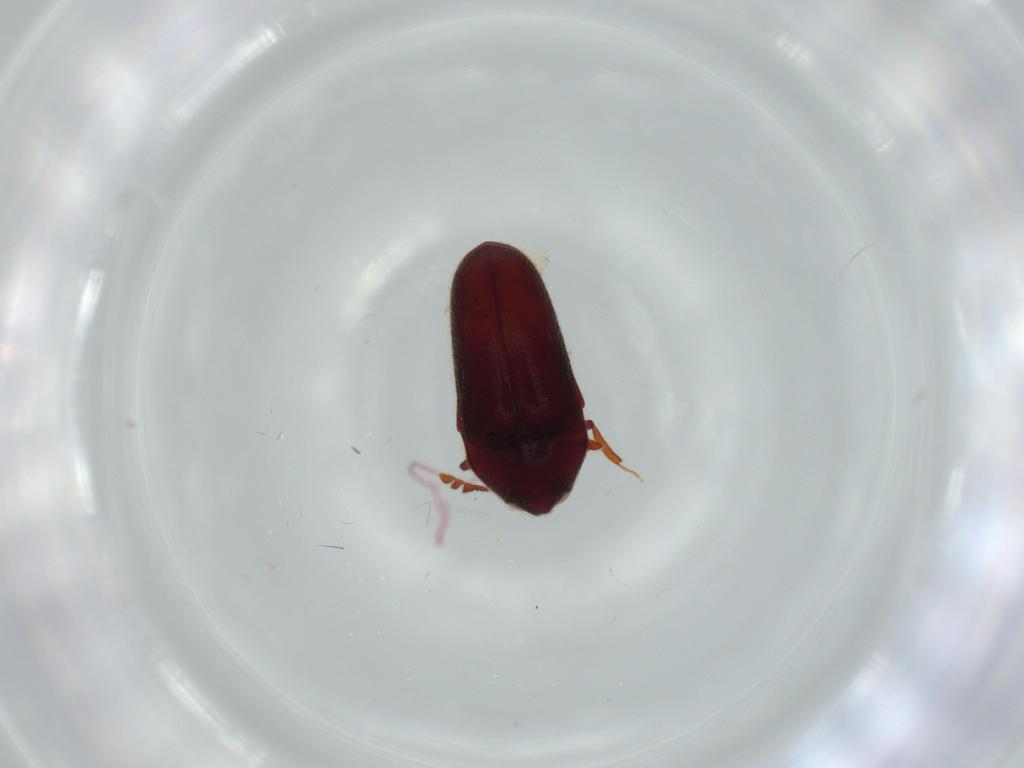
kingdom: Animalia
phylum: Arthropoda
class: Insecta
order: Coleoptera
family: Throscidae
